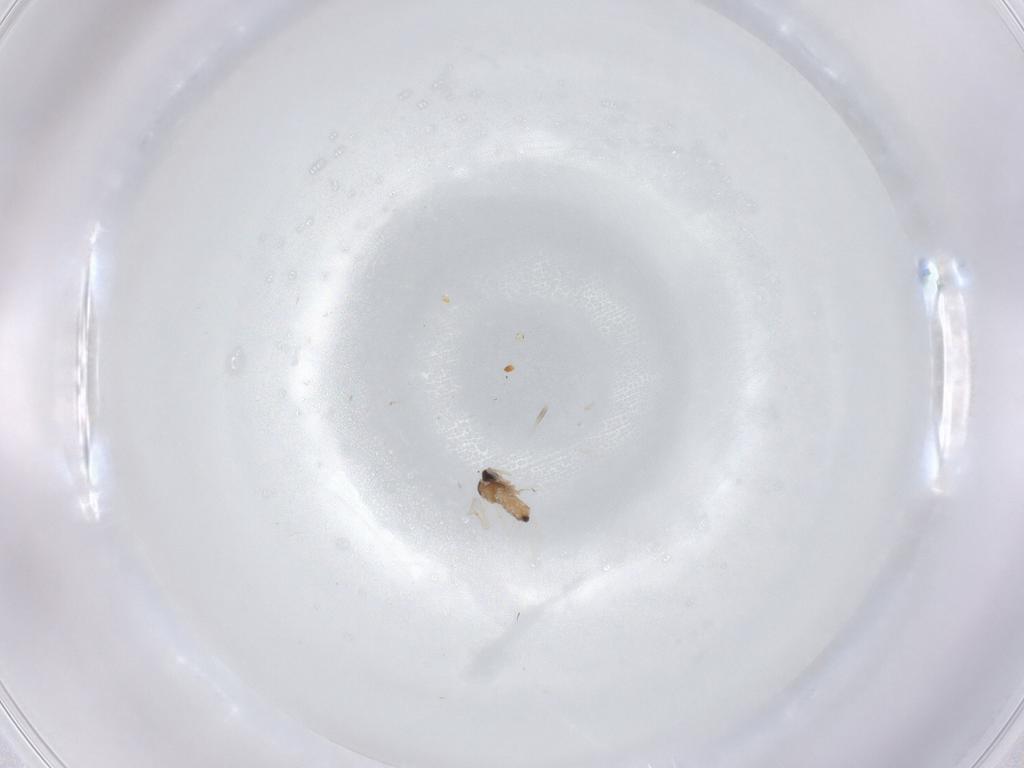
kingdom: Animalia
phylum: Arthropoda
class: Insecta
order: Diptera
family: Cecidomyiidae
